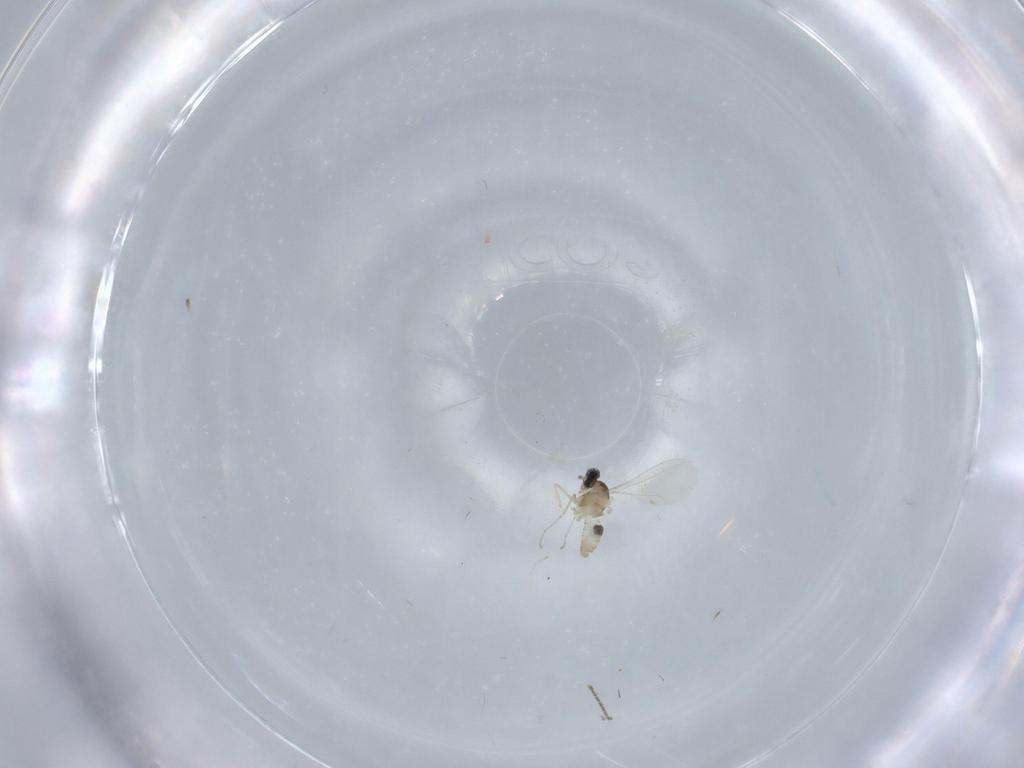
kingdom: Animalia
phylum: Arthropoda
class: Insecta
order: Diptera
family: Cecidomyiidae
